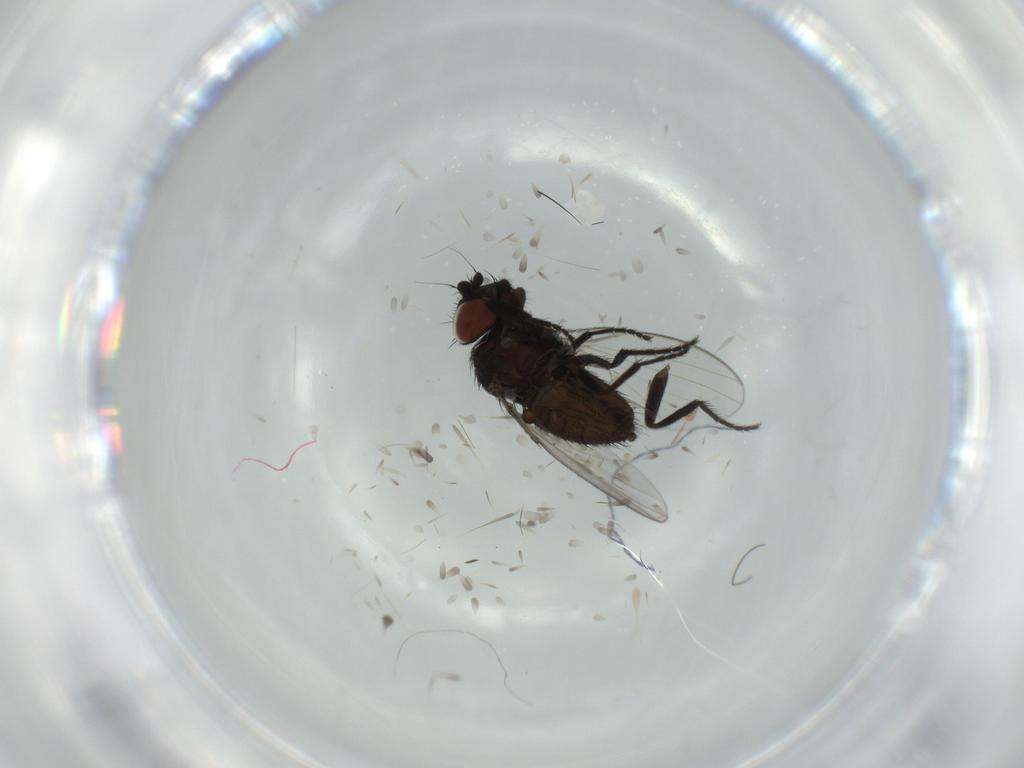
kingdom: Animalia
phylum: Arthropoda
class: Insecta
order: Diptera
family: Milichiidae
